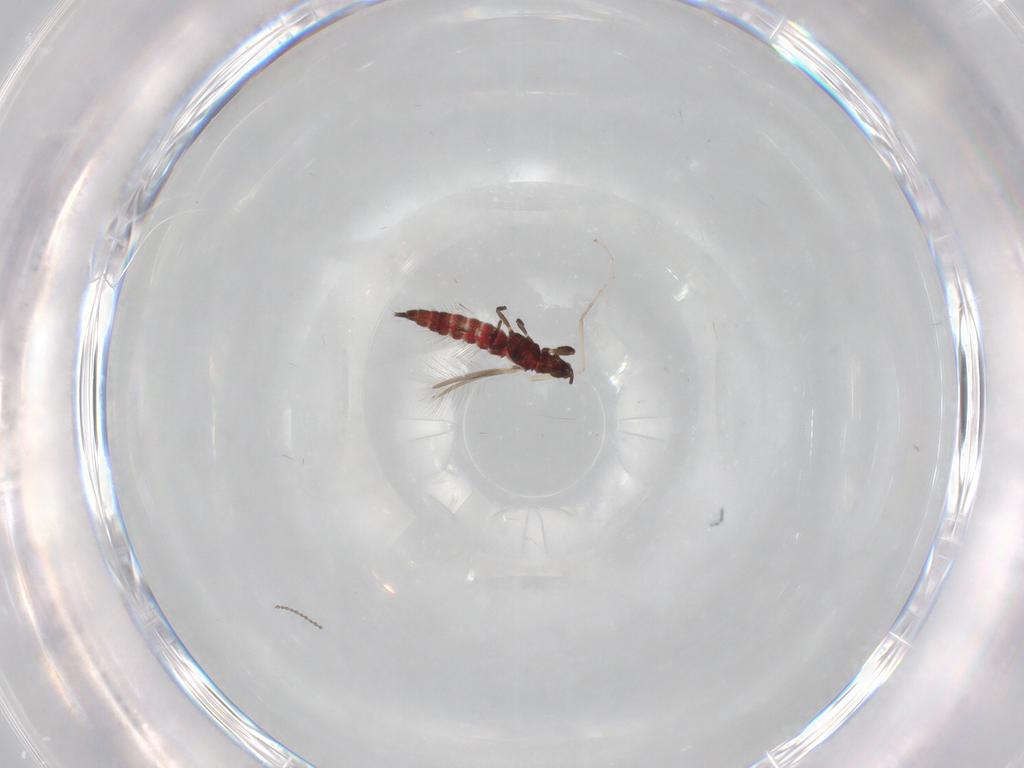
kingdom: Animalia
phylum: Arthropoda
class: Insecta
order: Thysanoptera
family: Phlaeothripidae
